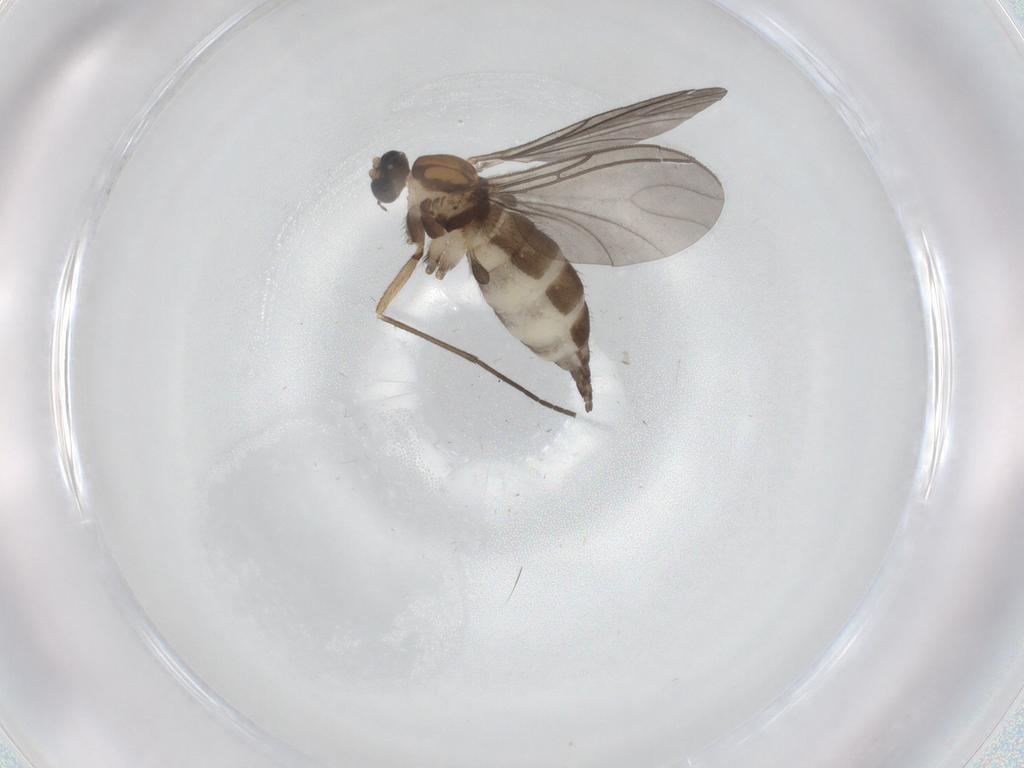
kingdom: Animalia
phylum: Arthropoda
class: Insecta
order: Diptera
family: Sciaridae
